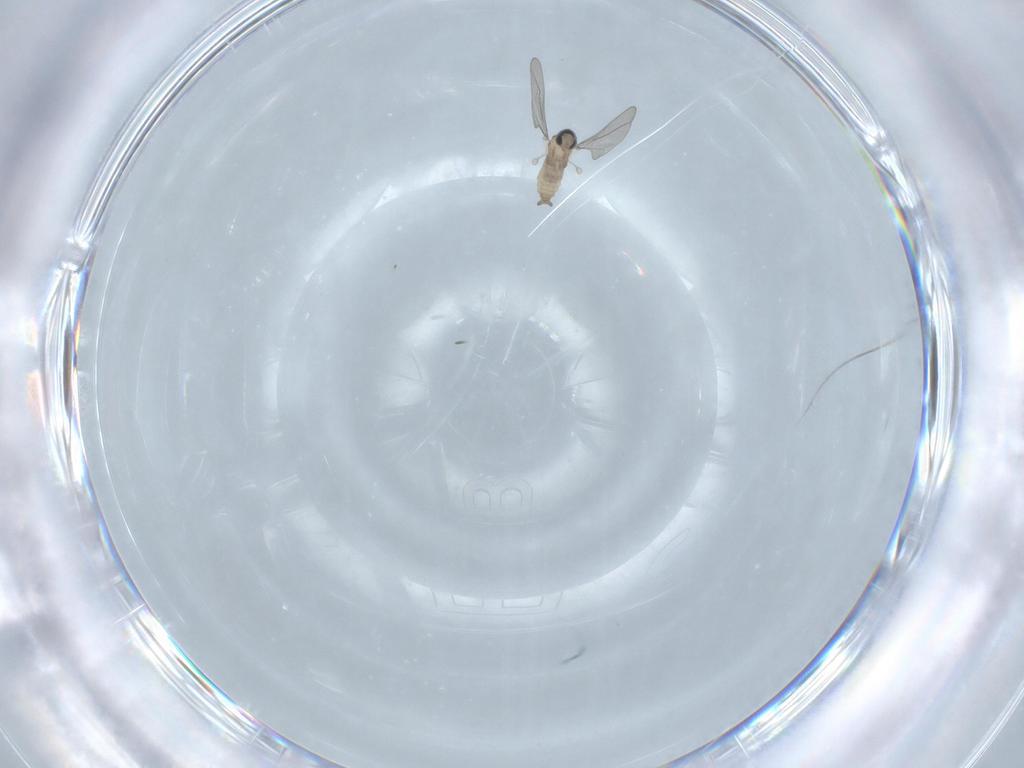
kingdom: Animalia
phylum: Arthropoda
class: Insecta
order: Diptera
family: Cecidomyiidae
